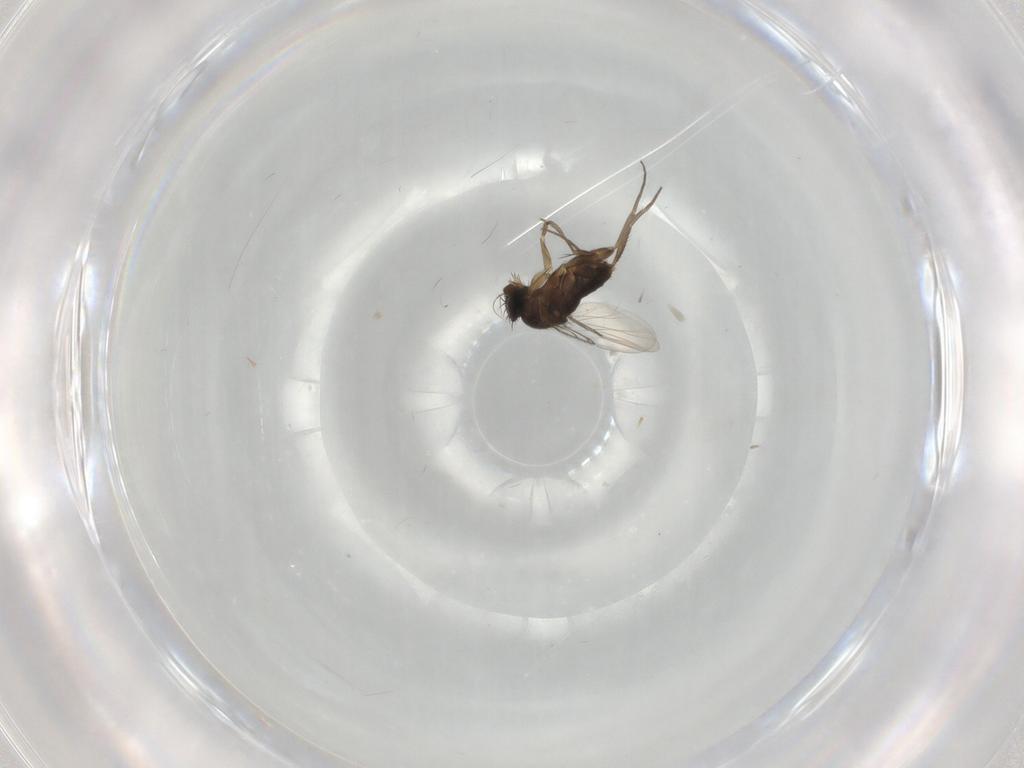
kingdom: Animalia
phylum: Arthropoda
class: Insecta
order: Diptera
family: Phoridae
